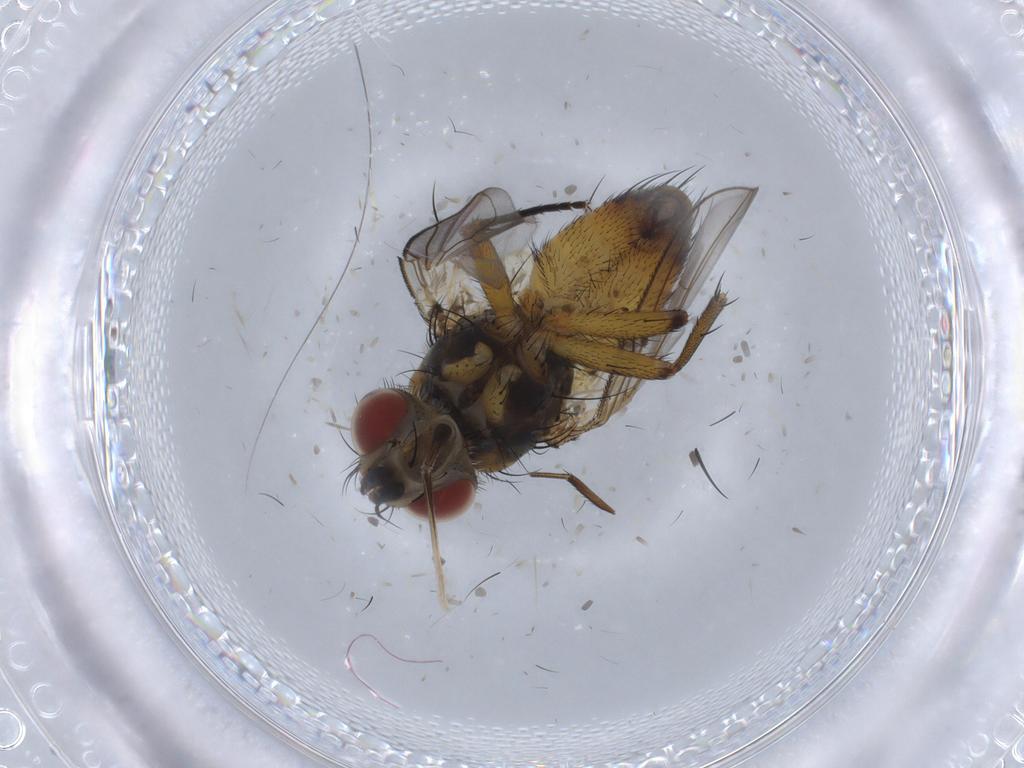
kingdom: Animalia
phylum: Arthropoda
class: Insecta
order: Diptera
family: Tachinidae
